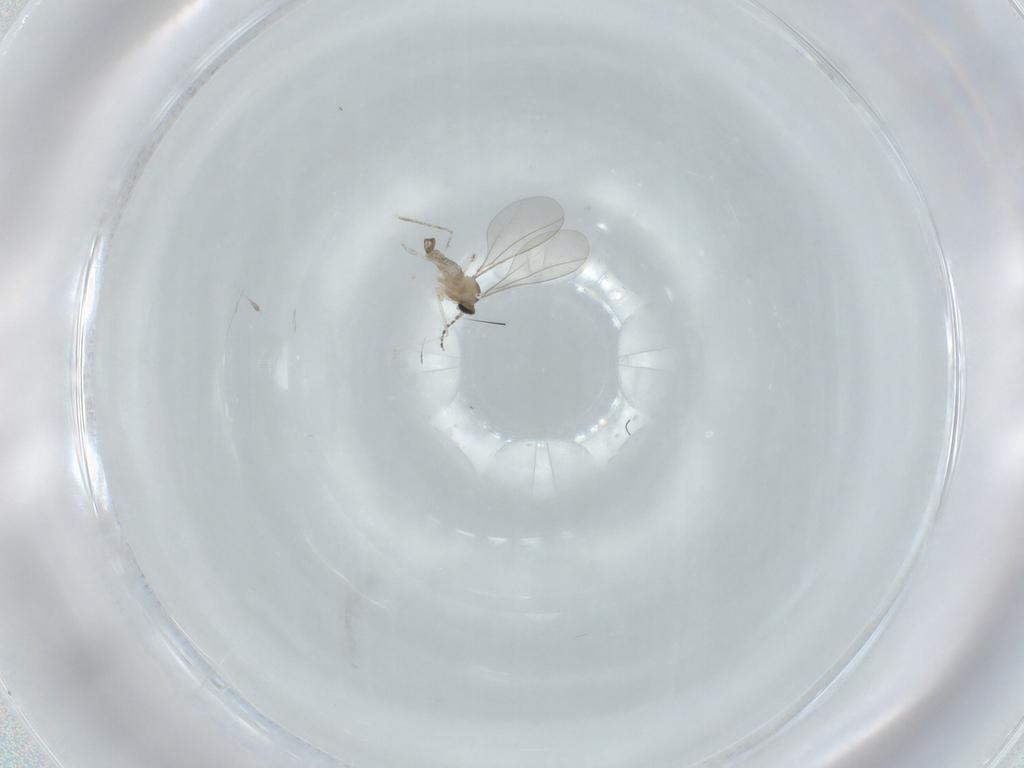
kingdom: Animalia
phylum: Arthropoda
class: Insecta
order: Diptera
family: Cecidomyiidae
